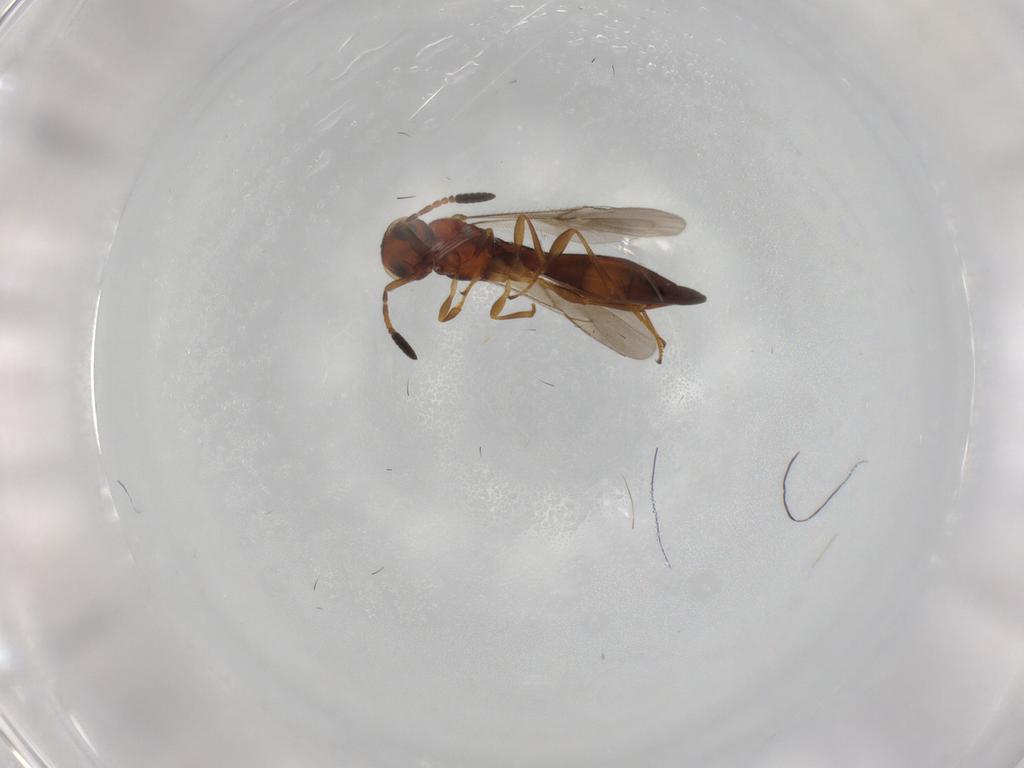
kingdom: Animalia
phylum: Arthropoda
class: Insecta
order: Hymenoptera
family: Scelionidae
